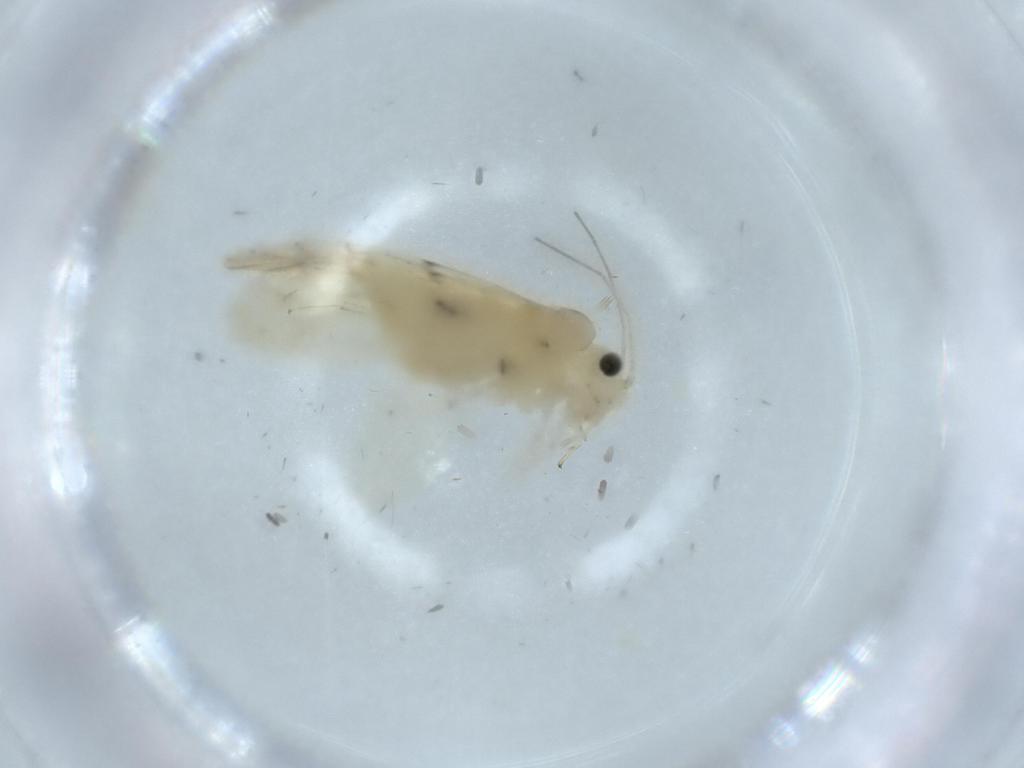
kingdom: Animalia
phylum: Arthropoda
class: Insecta
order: Psocodea
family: Caeciliusidae
